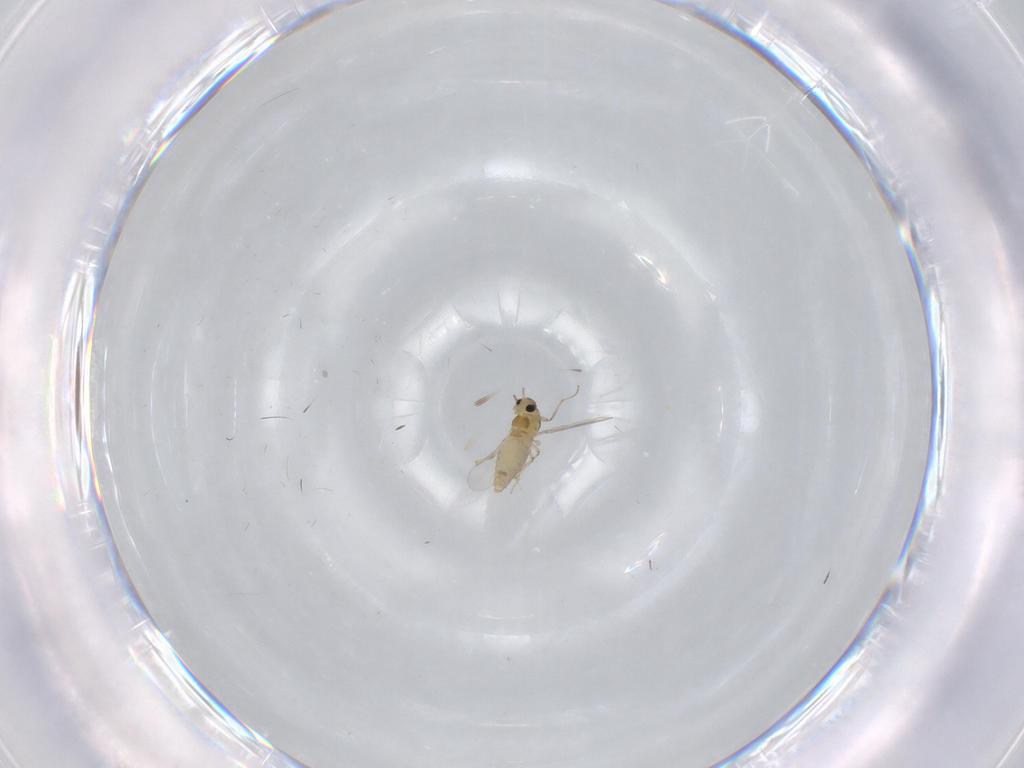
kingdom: Animalia
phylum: Arthropoda
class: Insecta
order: Diptera
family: Chironomidae
